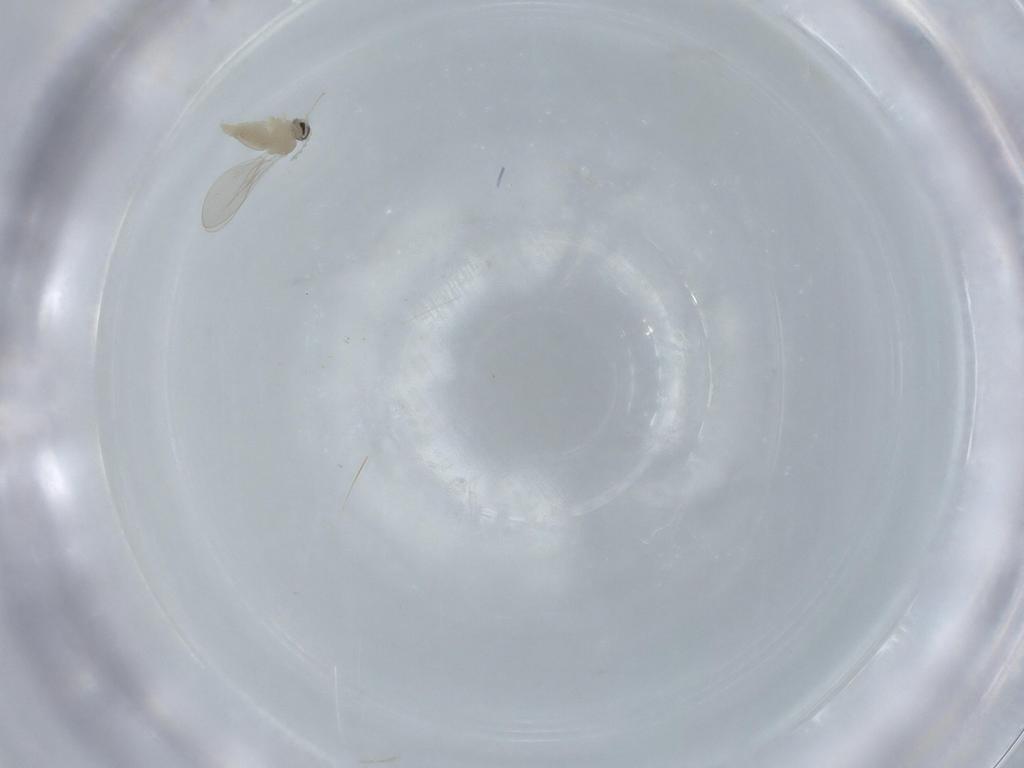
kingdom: Animalia
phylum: Arthropoda
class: Insecta
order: Diptera
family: Cecidomyiidae
